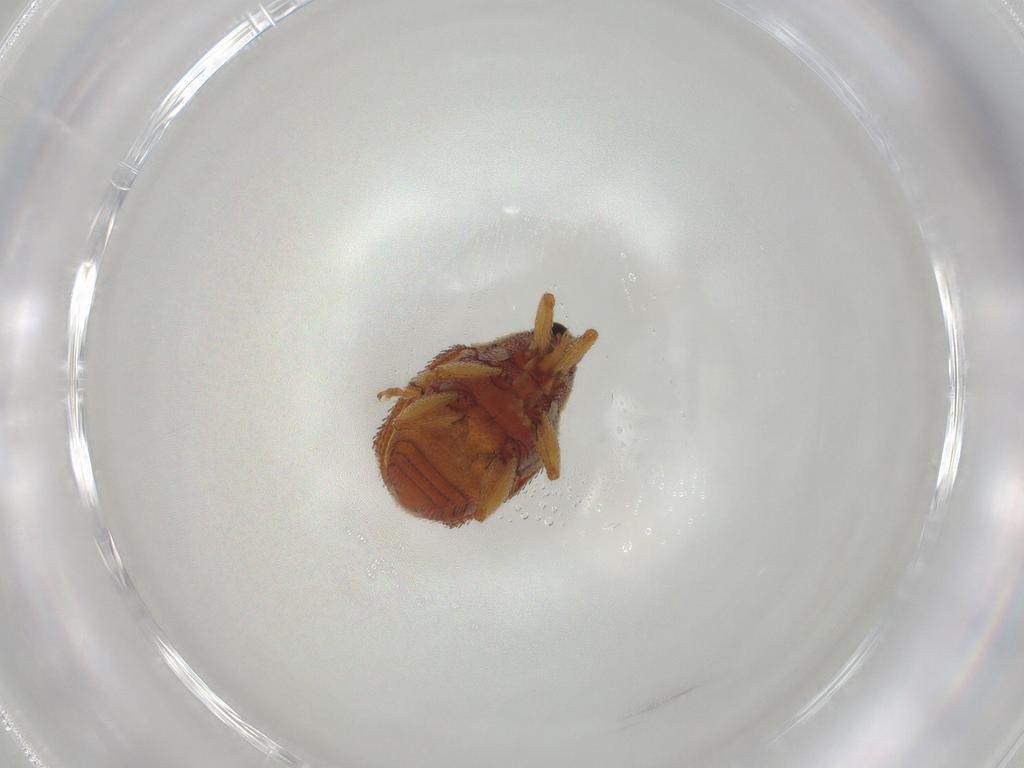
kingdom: Animalia
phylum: Arthropoda
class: Insecta
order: Coleoptera
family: Curculionidae
